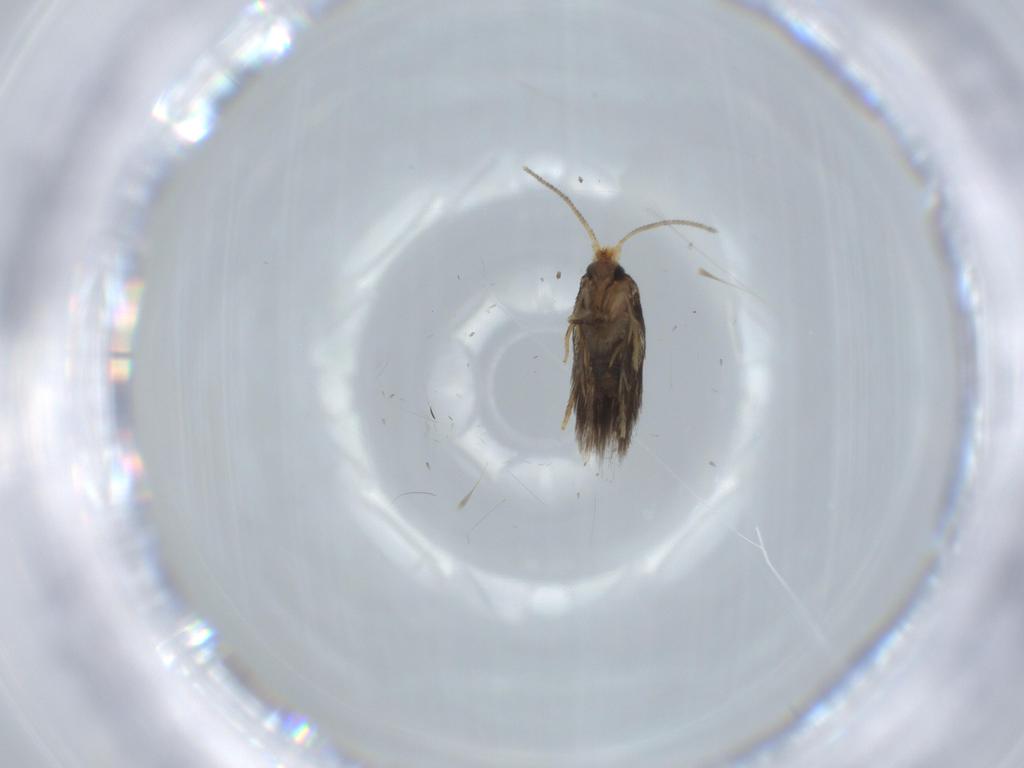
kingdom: Animalia
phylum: Arthropoda
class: Insecta
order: Lepidoptera
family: Nepticulidae
